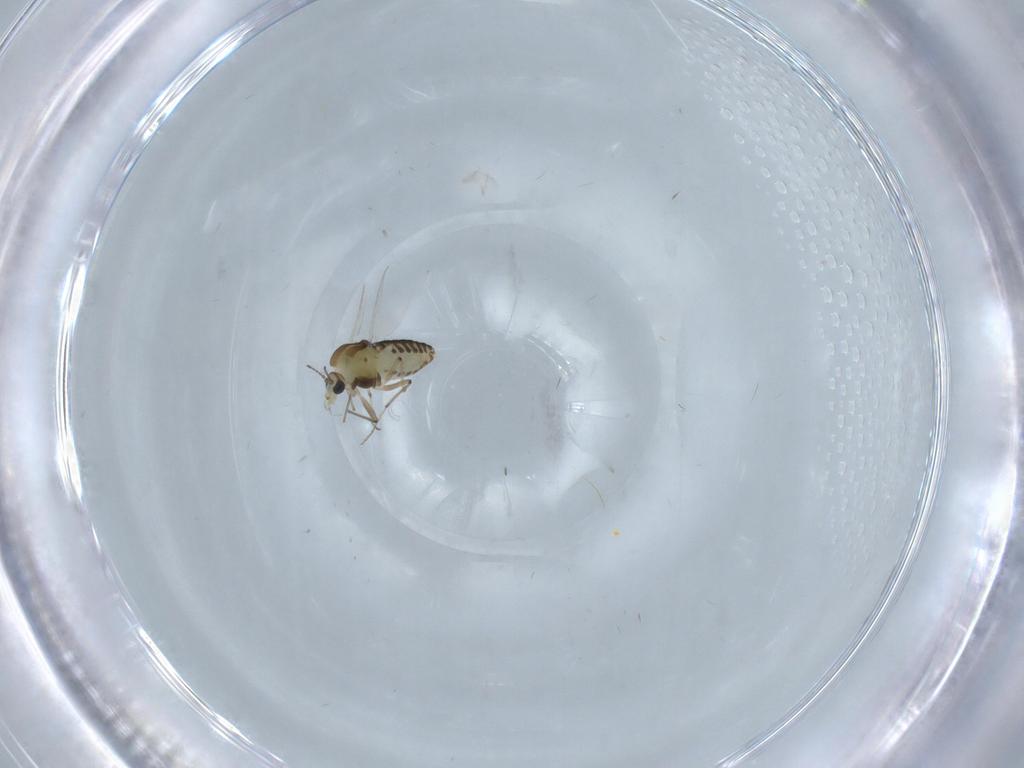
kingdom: Animalia
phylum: Arthropoda
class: Insecta
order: Diptera
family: Chironomidae
